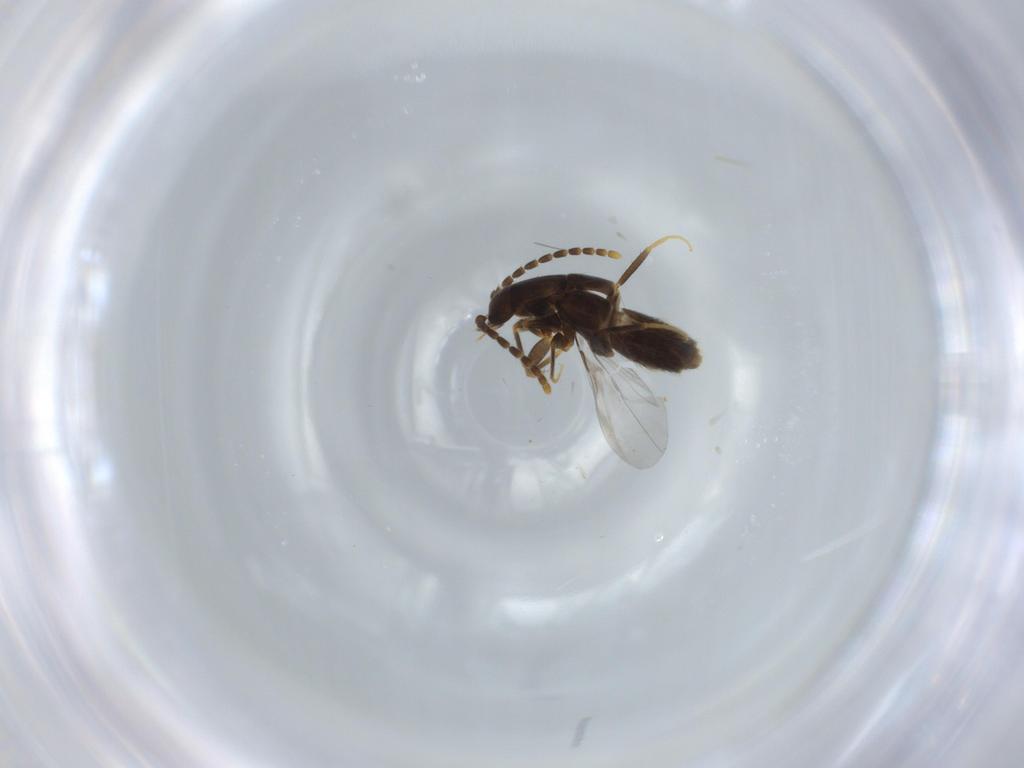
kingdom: Animalia
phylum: Arthropoda
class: Insecta
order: Coleoptera
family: Staphylinidae
